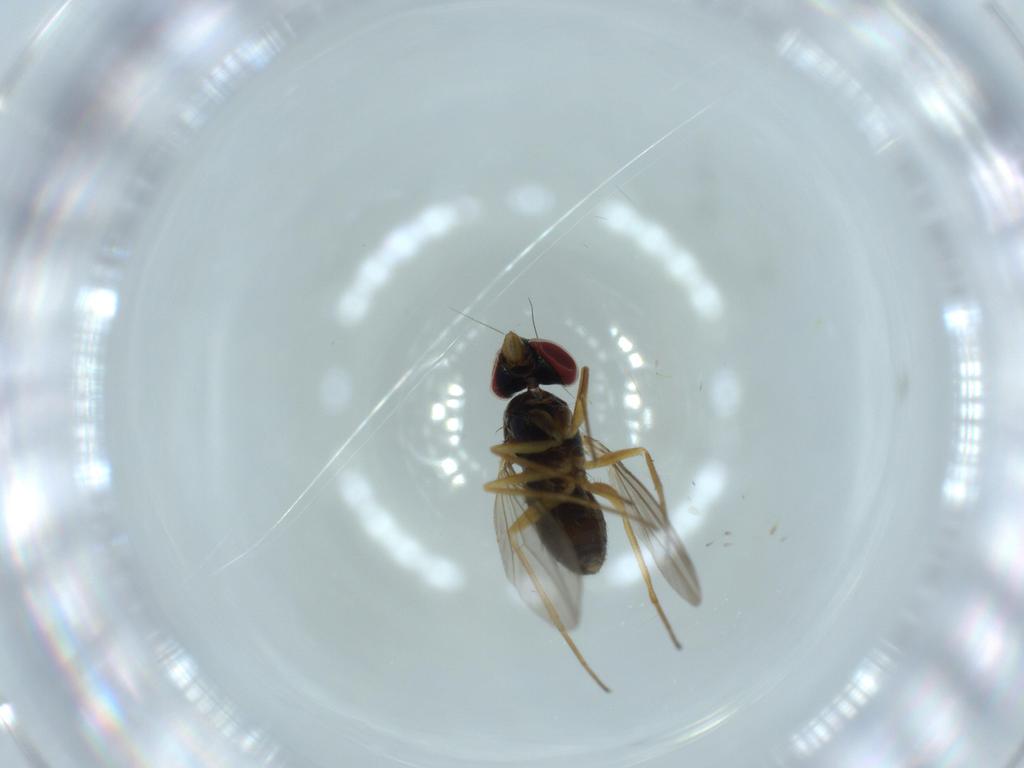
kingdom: Animalia
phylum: Arthropoda
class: Insecta
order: Diptera
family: Dolichopodidae
